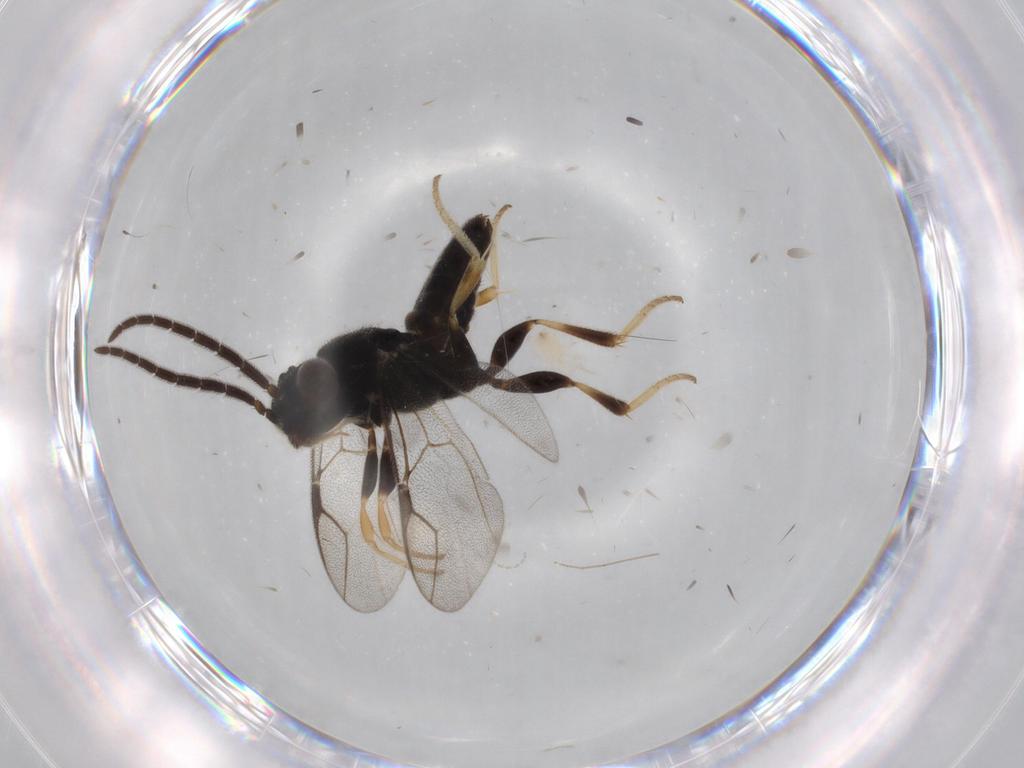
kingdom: Animalia
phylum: Arthropoda
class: Insecta
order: Hymenoptera
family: Dryinidae
